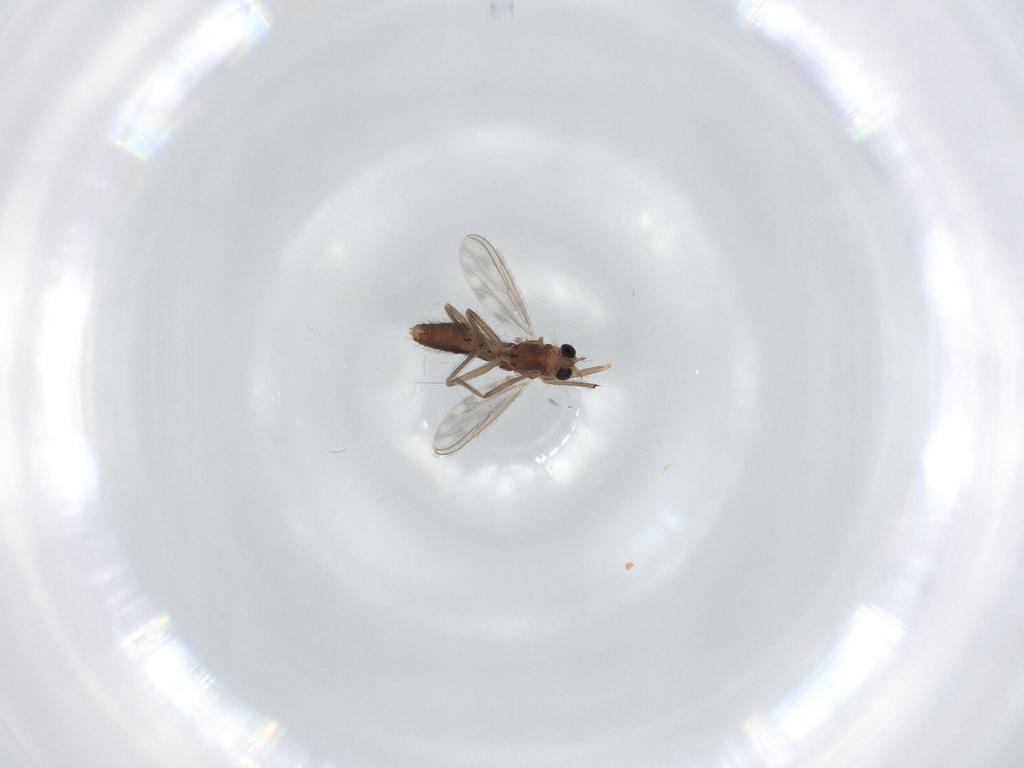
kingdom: Animalia
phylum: Arthropoda
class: Insecta
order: Diptera
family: Chironomidae
